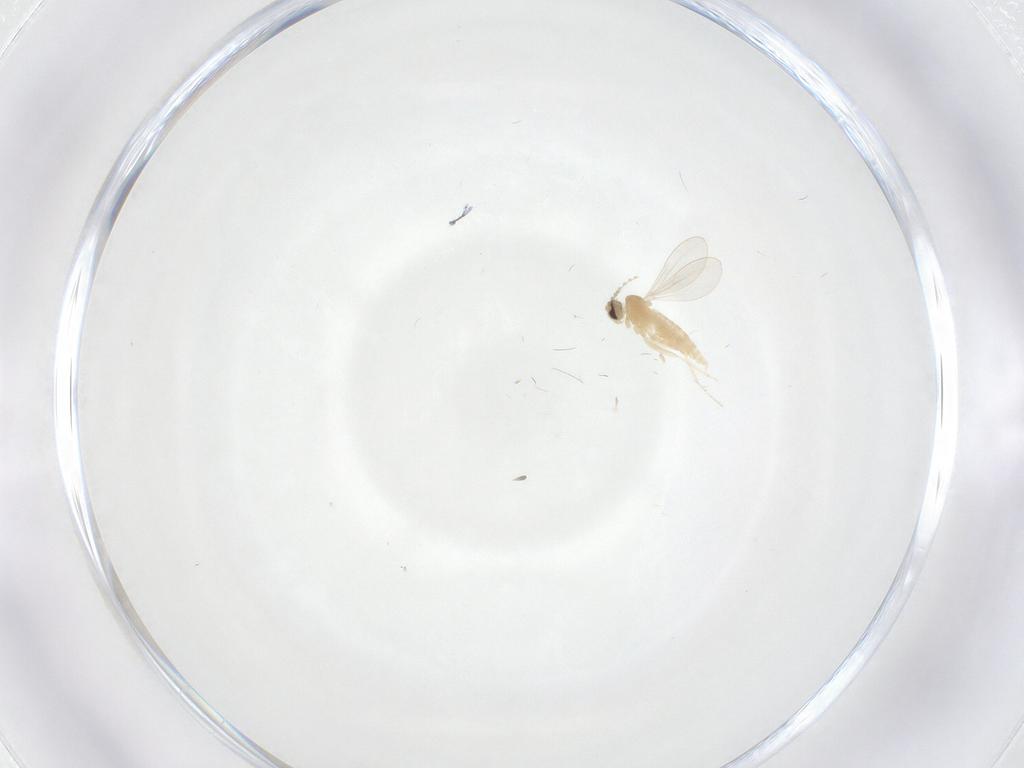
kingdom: Animalia
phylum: Arthropoda
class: Insecta
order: Diptera
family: Cecidomyiidae
